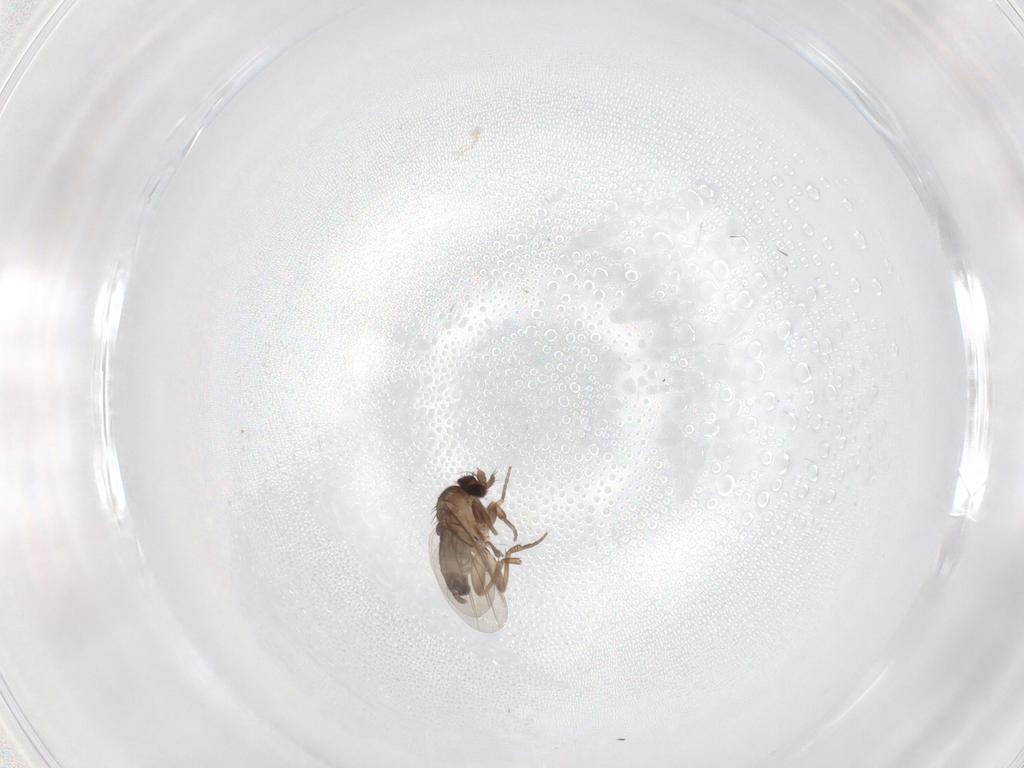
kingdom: Animalia
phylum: Arthropoda
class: Insecta
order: Diptera
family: Phoridae
